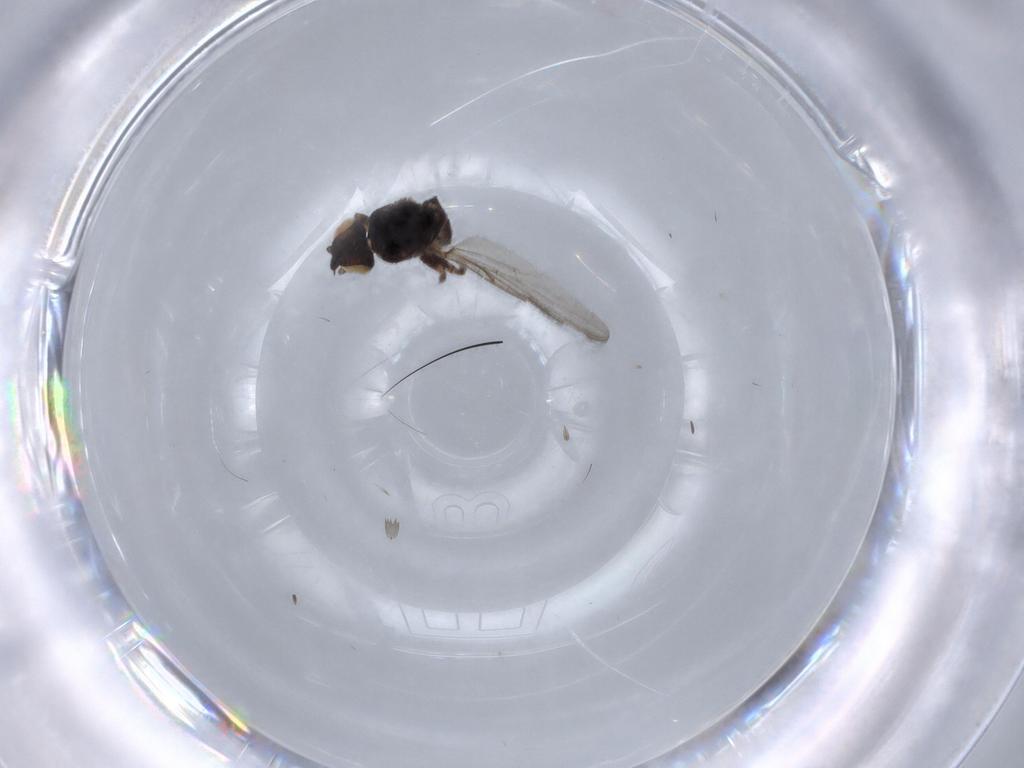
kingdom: Animalia
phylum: Arthropoda
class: Insecta
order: Diptera
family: Chloropidae
